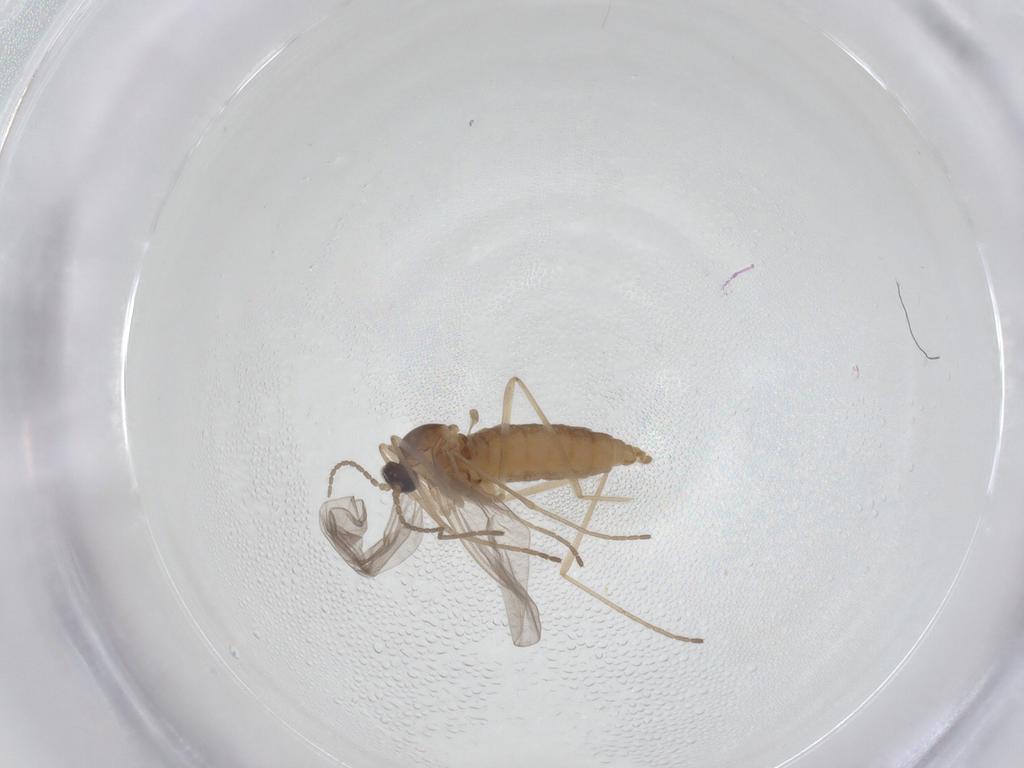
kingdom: Animalia
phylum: Arthropoda
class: Insecta
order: Diptera
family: Cecidomyiidae
